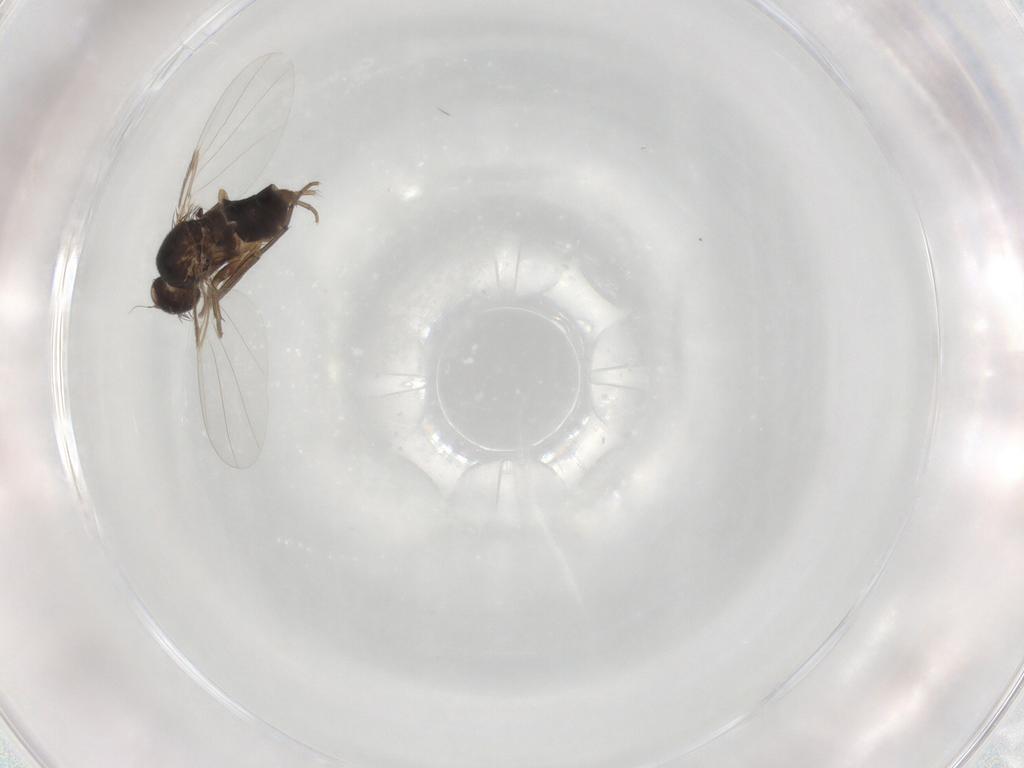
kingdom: Animalia
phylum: Arthropoda
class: Insecta
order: Diptera
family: Phoridae
